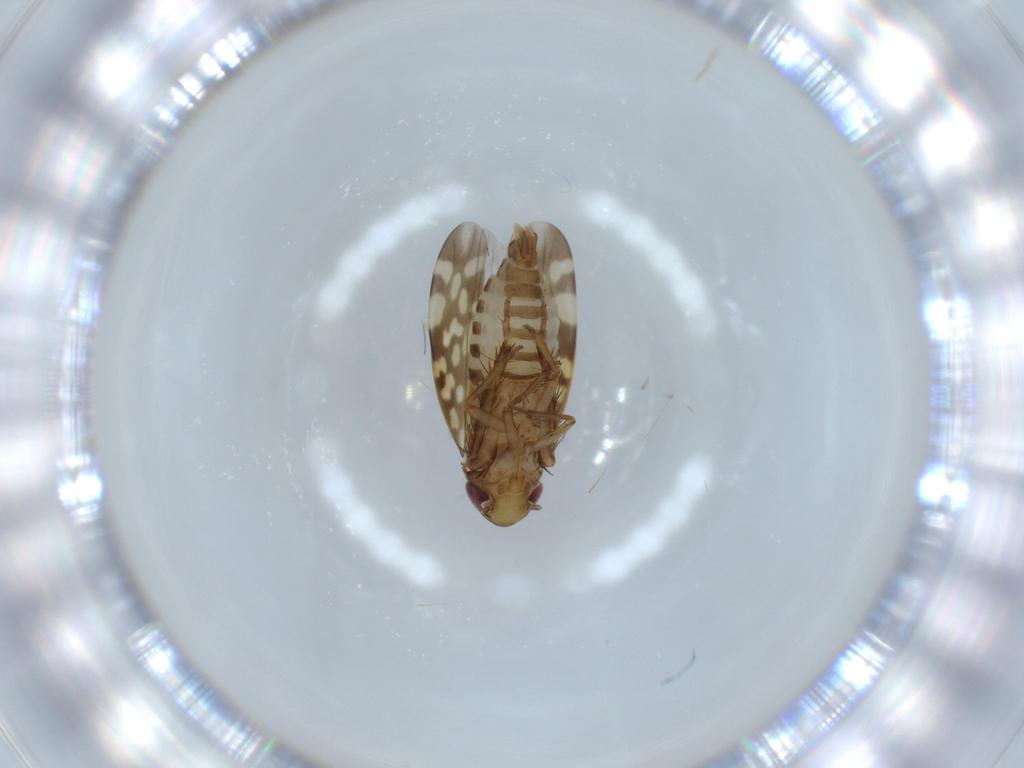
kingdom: Animalia
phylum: Arthropoda
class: Insecta
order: Hemiptera
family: Cicadellidae
